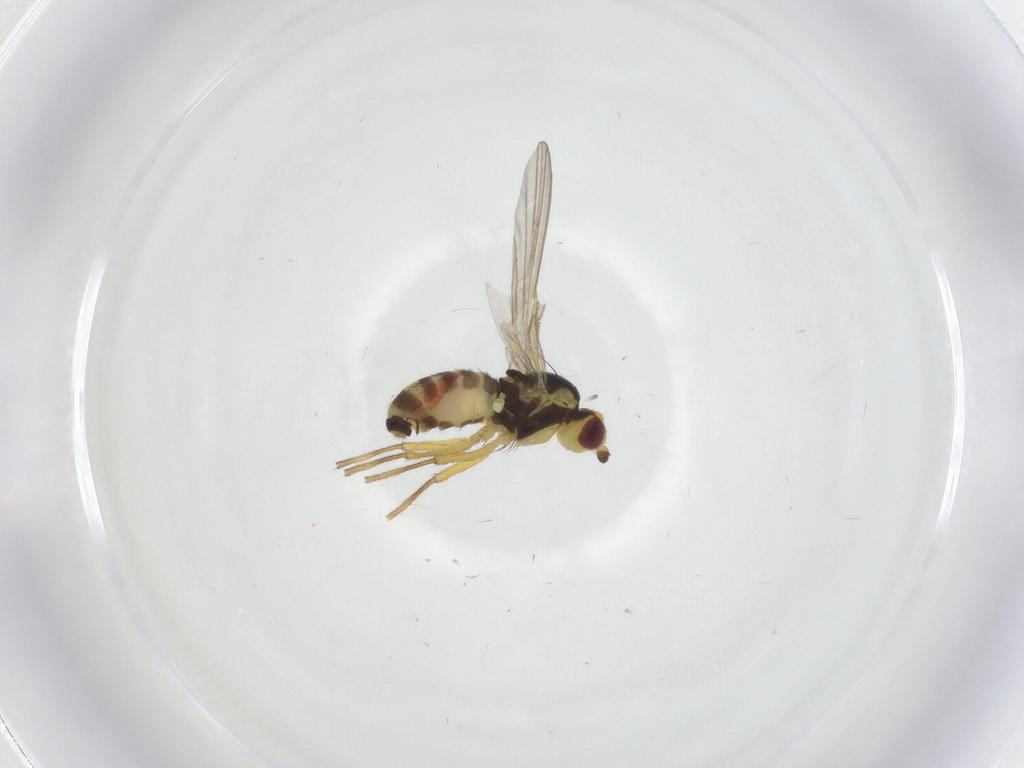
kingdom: Animalia
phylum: Arthropoda
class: Insecta
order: Diptera
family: Agromyzidae
